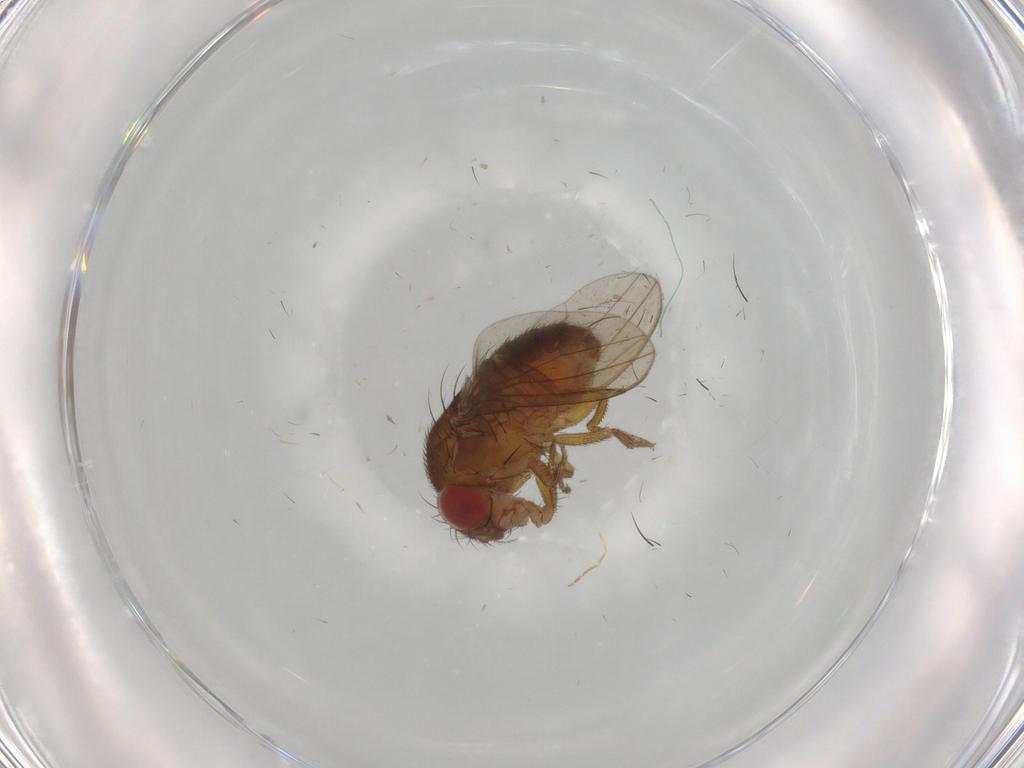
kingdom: Animalia
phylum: Arthropoda
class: Insecta
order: Diptera
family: Drosophilidae
